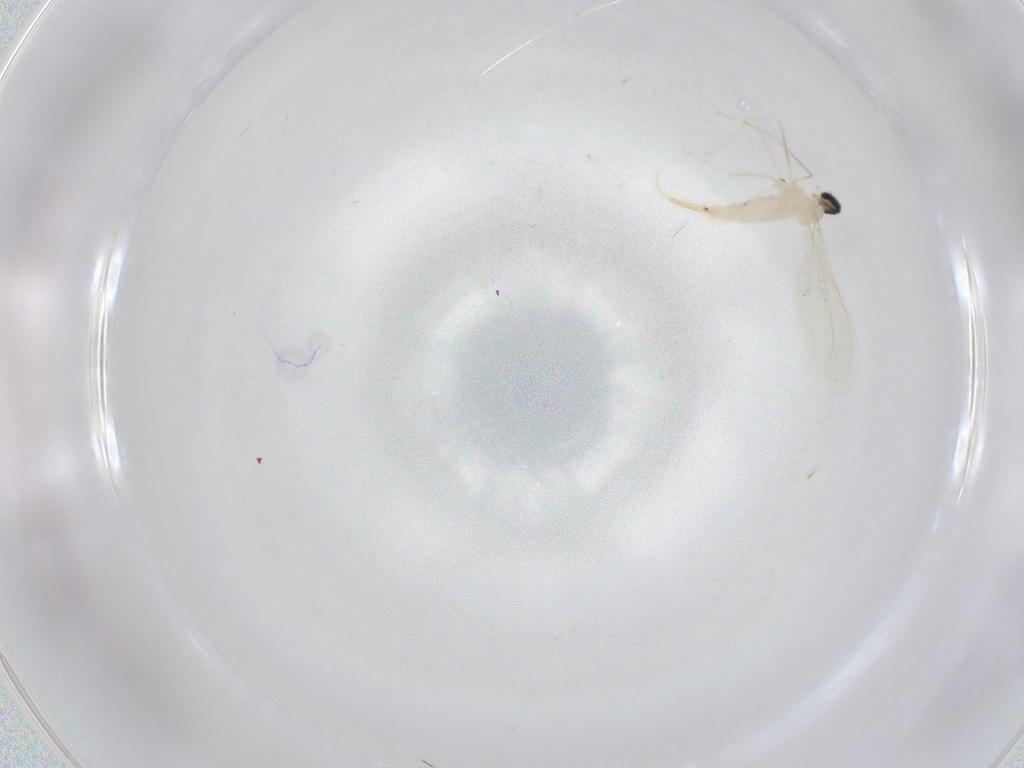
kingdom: Animalia
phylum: Arthropoda
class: Insecta
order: Diptera
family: Cecidomyiidae
